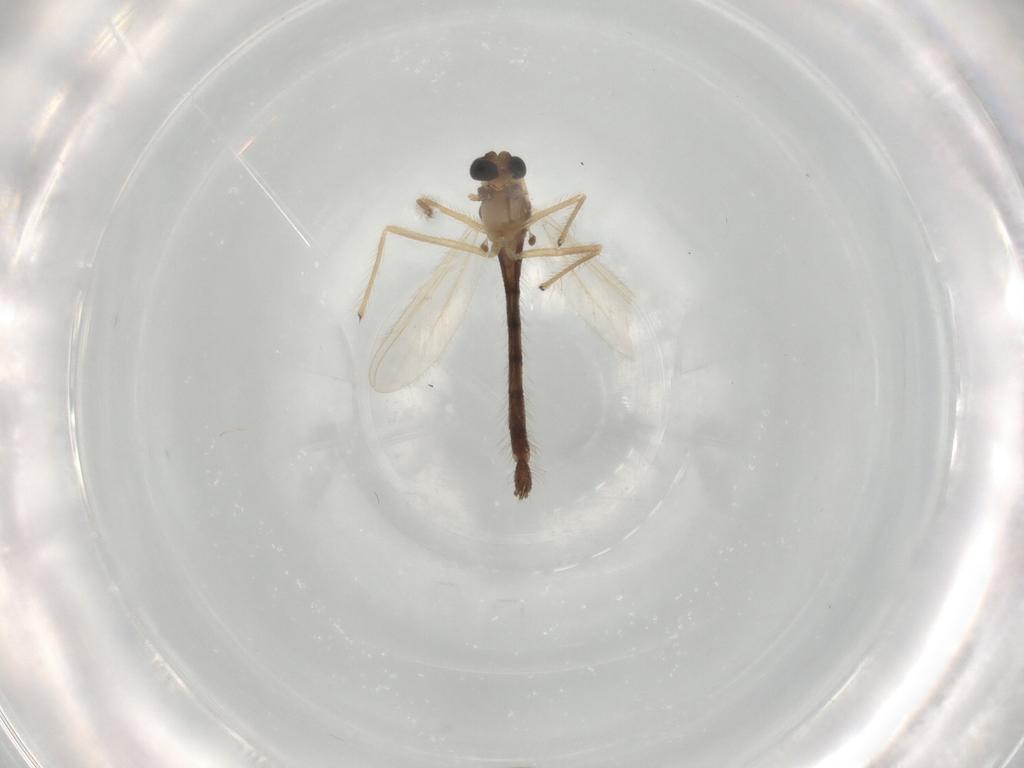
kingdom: Animalia
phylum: Arthropoda
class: Insecta
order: Diptera
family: Chironomidae
